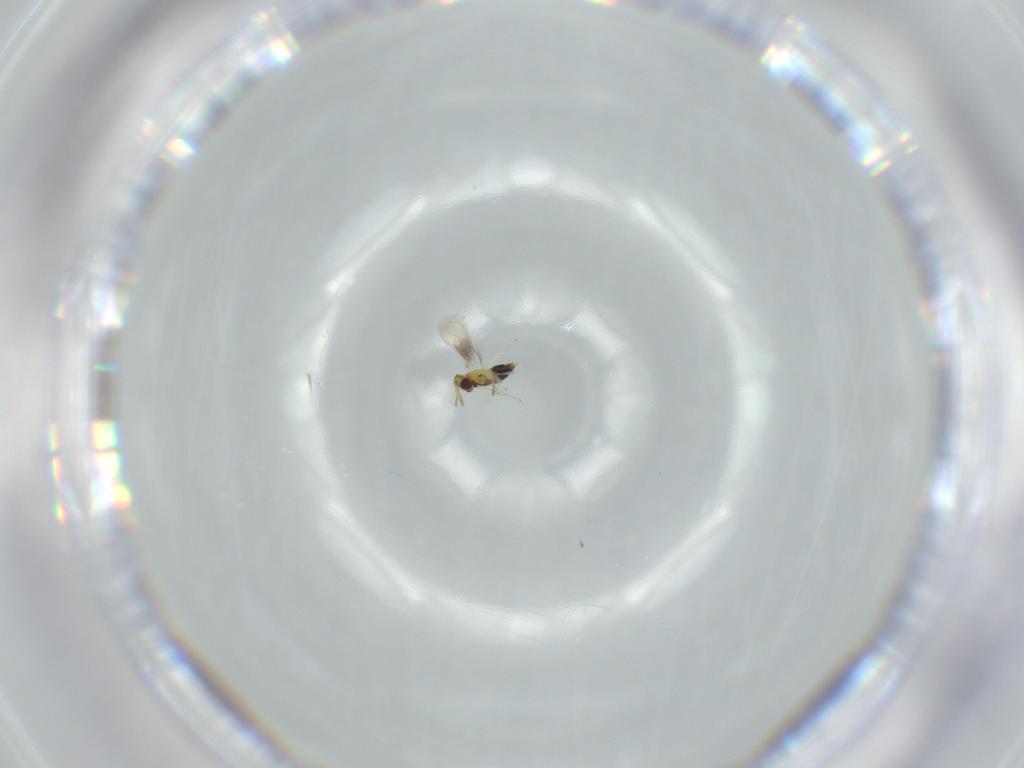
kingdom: Animalia
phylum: Arthropoda
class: Insecta
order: Hymenoptera
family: Aphelinidae
